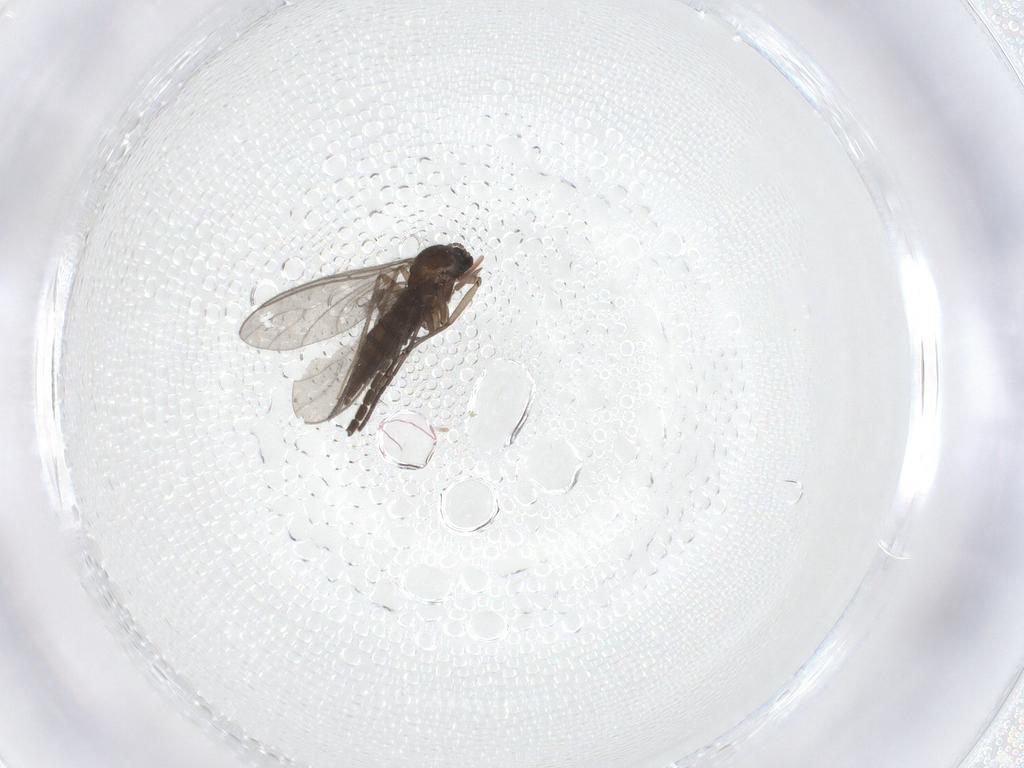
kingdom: Animalia
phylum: Arthropoda
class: Insecta
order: Diptera
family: Sciaridae
